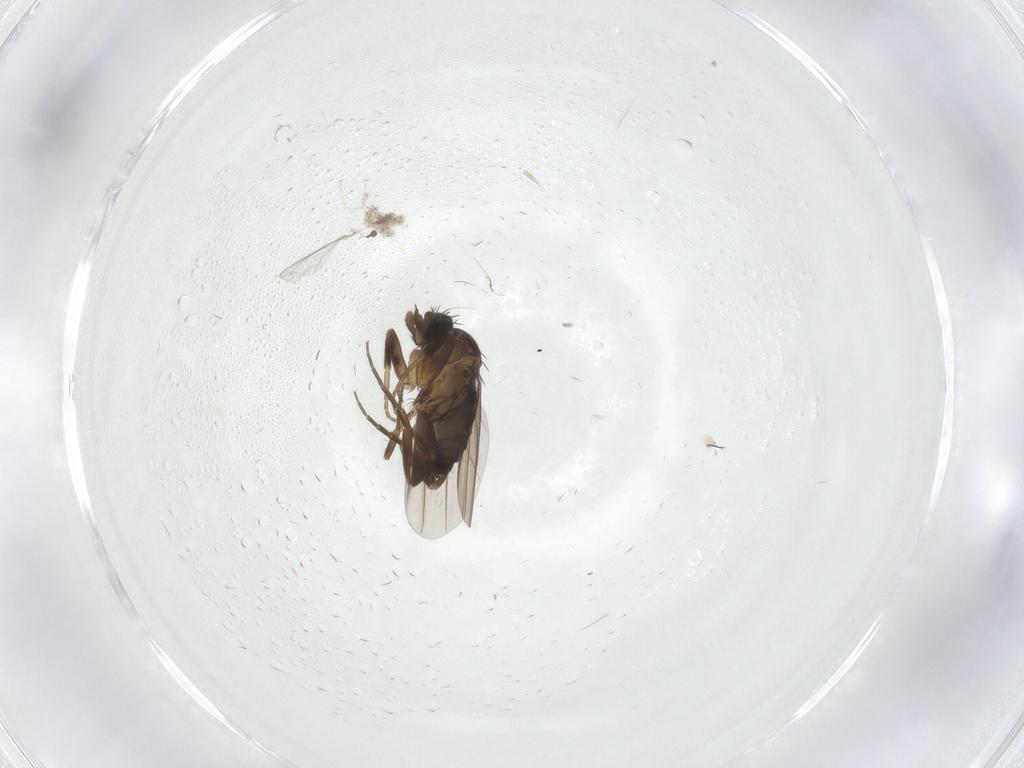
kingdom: Animalia
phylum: Arthropoda
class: Insecta
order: Diptera
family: Phoridae
